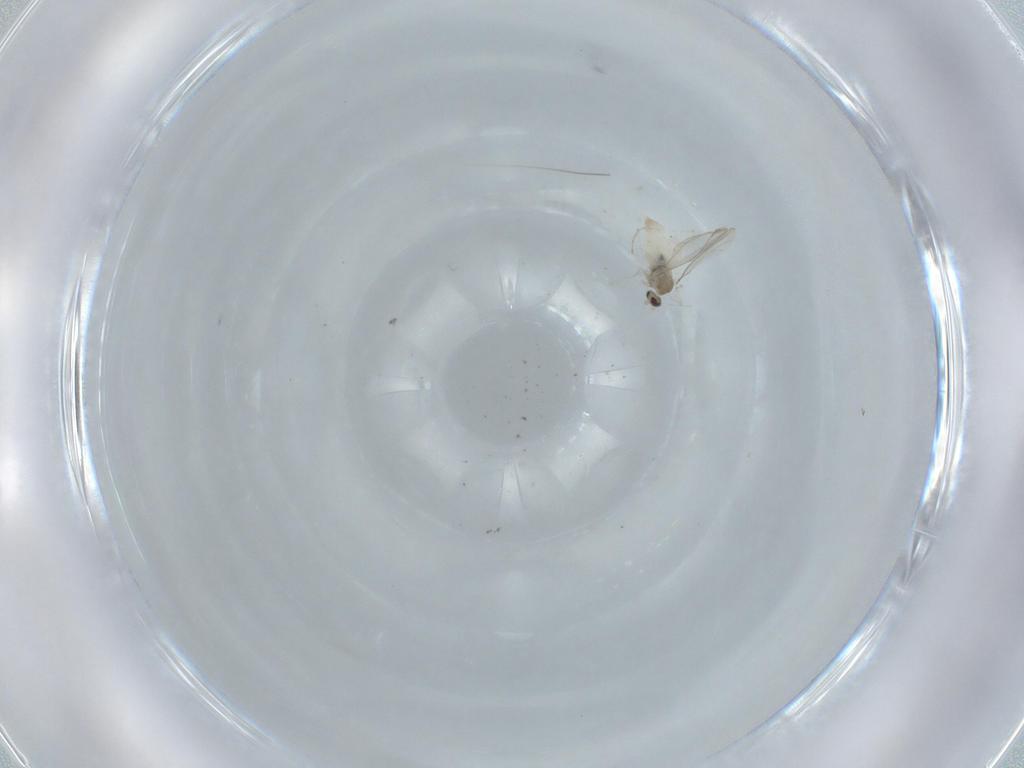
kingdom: Animalia
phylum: Arthropoda
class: Insecta
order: Diptera
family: Cecidomyiidae
